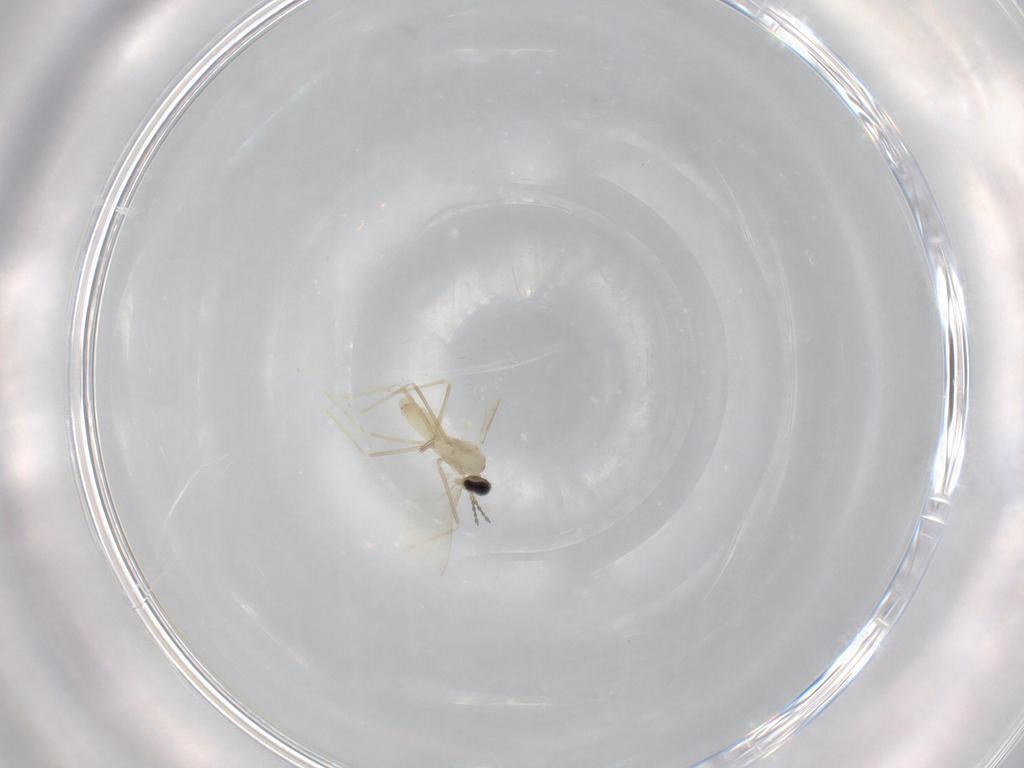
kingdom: Animalia
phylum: Arthropoda
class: Insecta
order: Diptera
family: Cecidomyiidae
